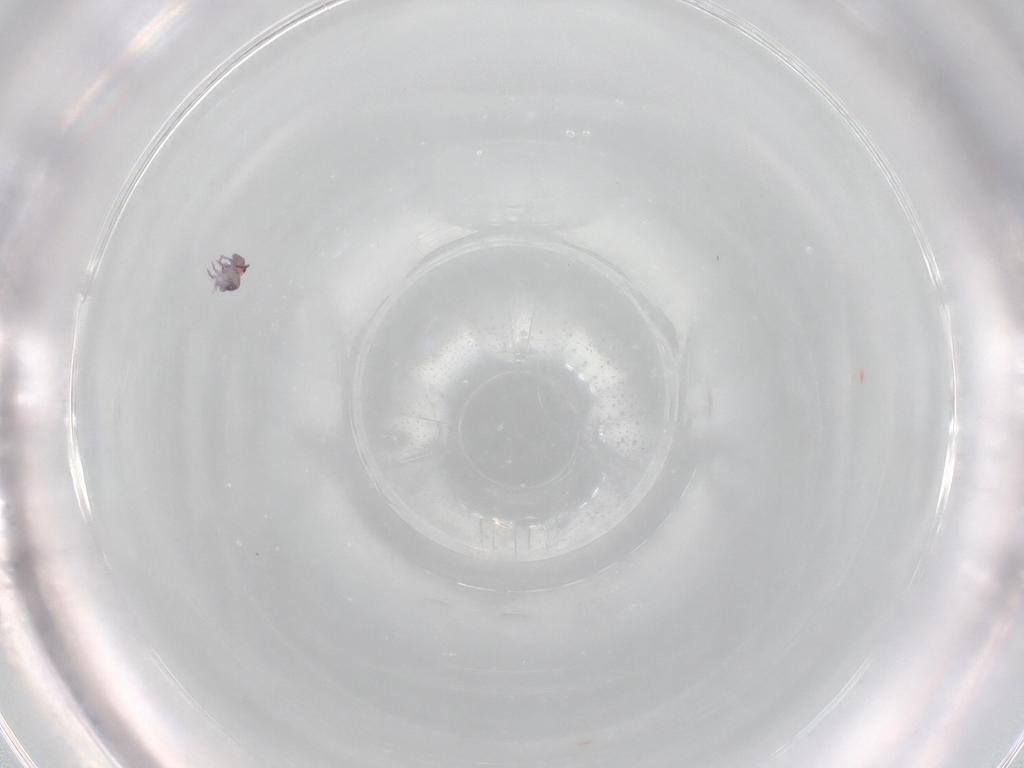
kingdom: Animalia
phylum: Arthropoda
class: Collembola
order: Symphypleona
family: Bourletiellidae
